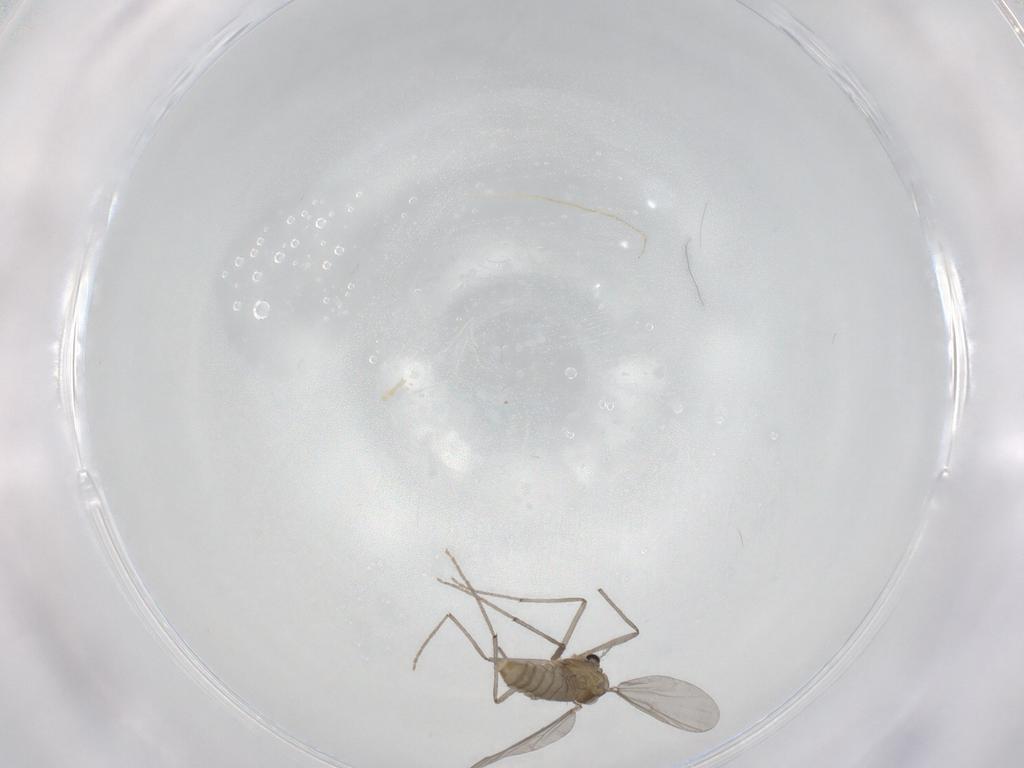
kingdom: Animalia
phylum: Arthropoda
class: Insecta
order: Diptera
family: Chironomidae
